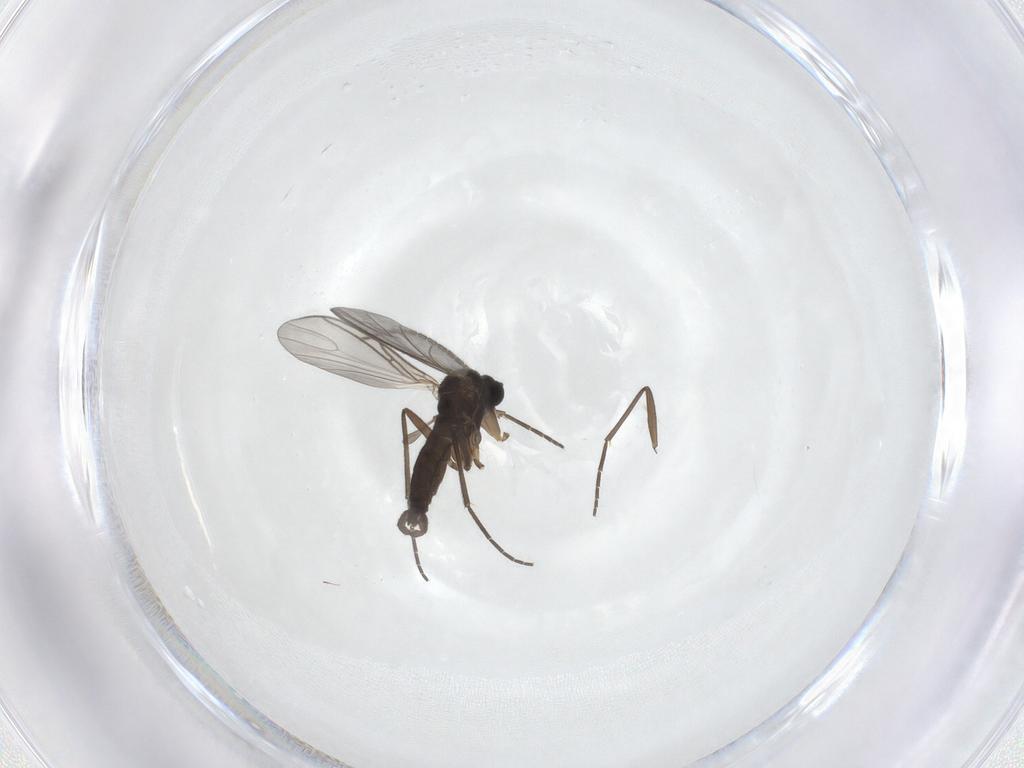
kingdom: Animalia
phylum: Arthropoda
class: Insecta
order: Diptera
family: Sciaridae
